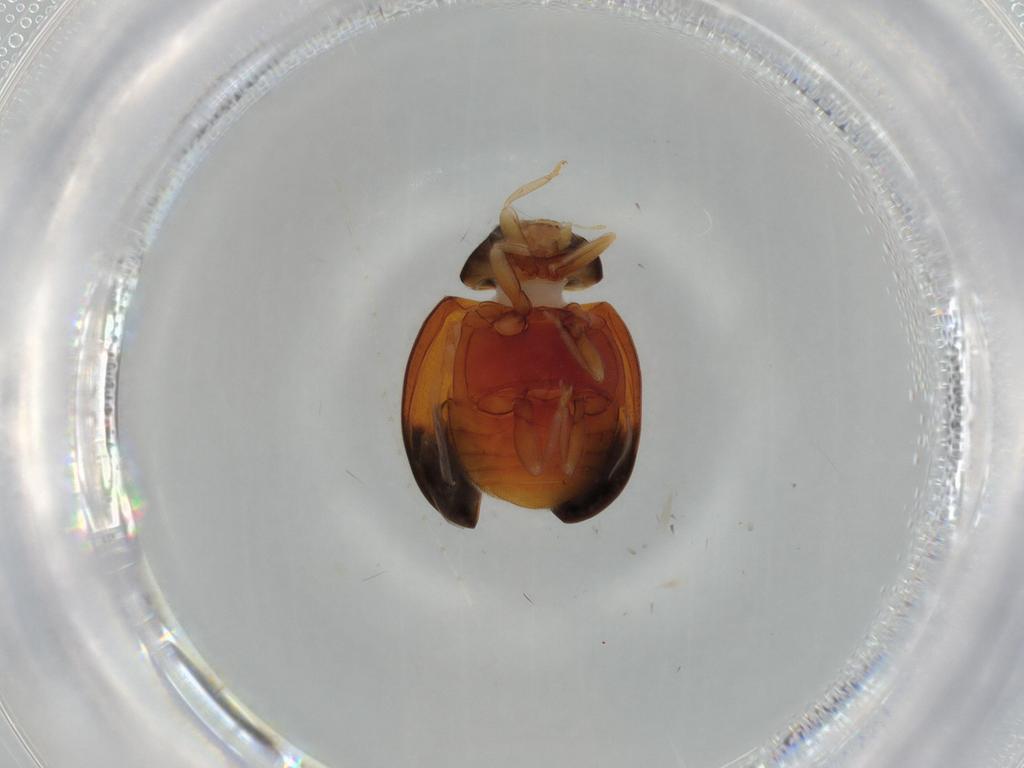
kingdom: Animalia
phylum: Arthropoda
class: Insecta
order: Coleoptera
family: Coccinellidae
